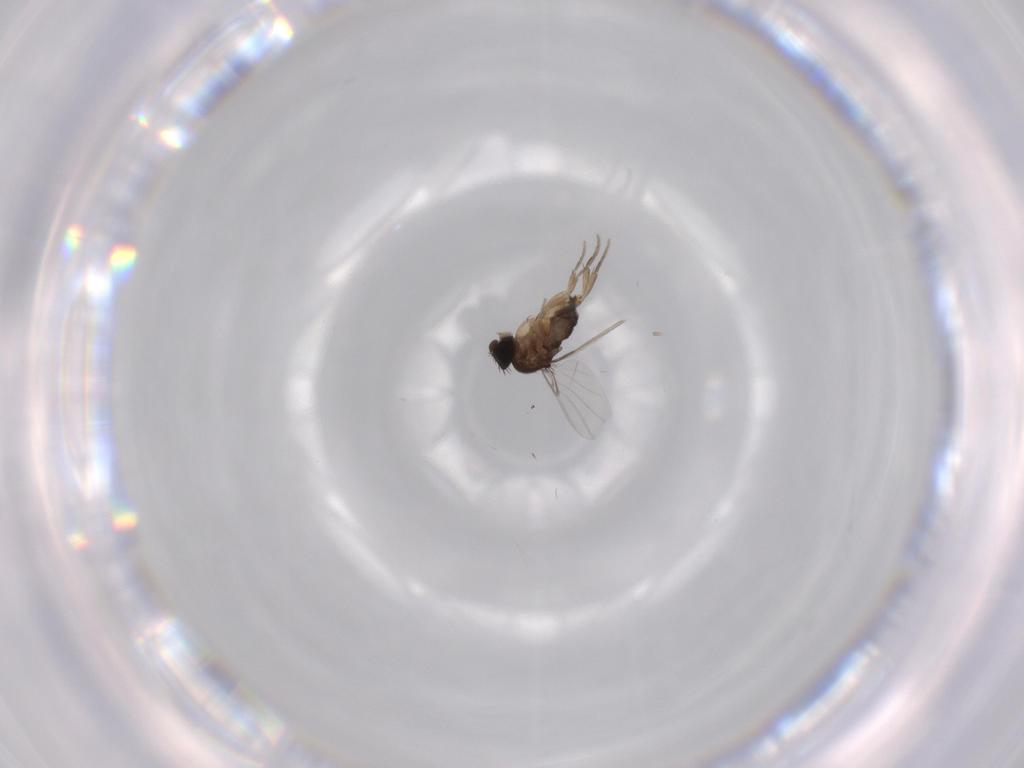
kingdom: Animalia
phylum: Arthropoda
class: Insecta
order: Diptera
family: Phoridae
